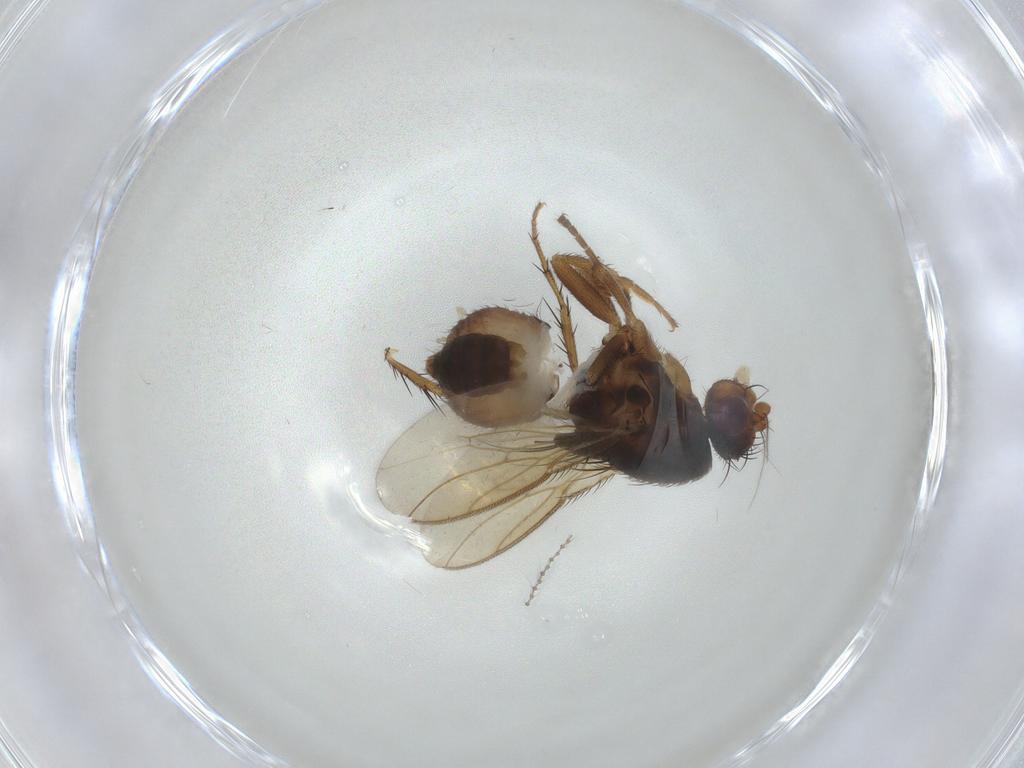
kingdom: Animalia
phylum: Arthropoda
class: Insecta
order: Diptera
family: Sphaeroceridae
